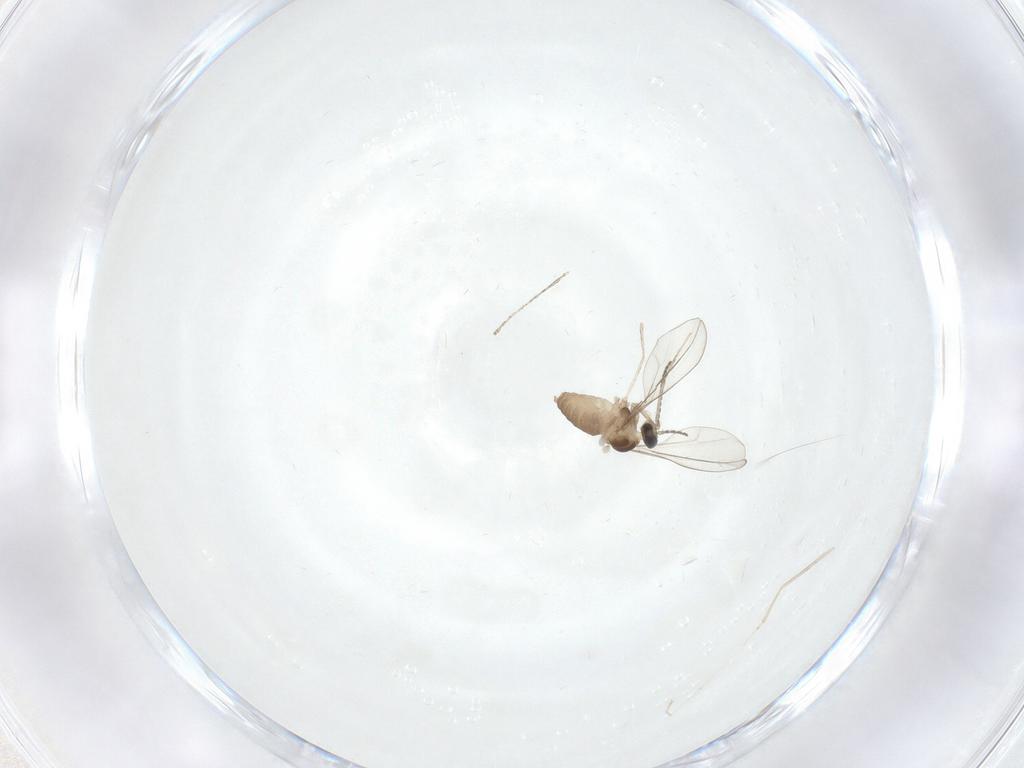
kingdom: Animalia
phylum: Arthropoda
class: Insecta
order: Diptera
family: Cecidomyiidae
